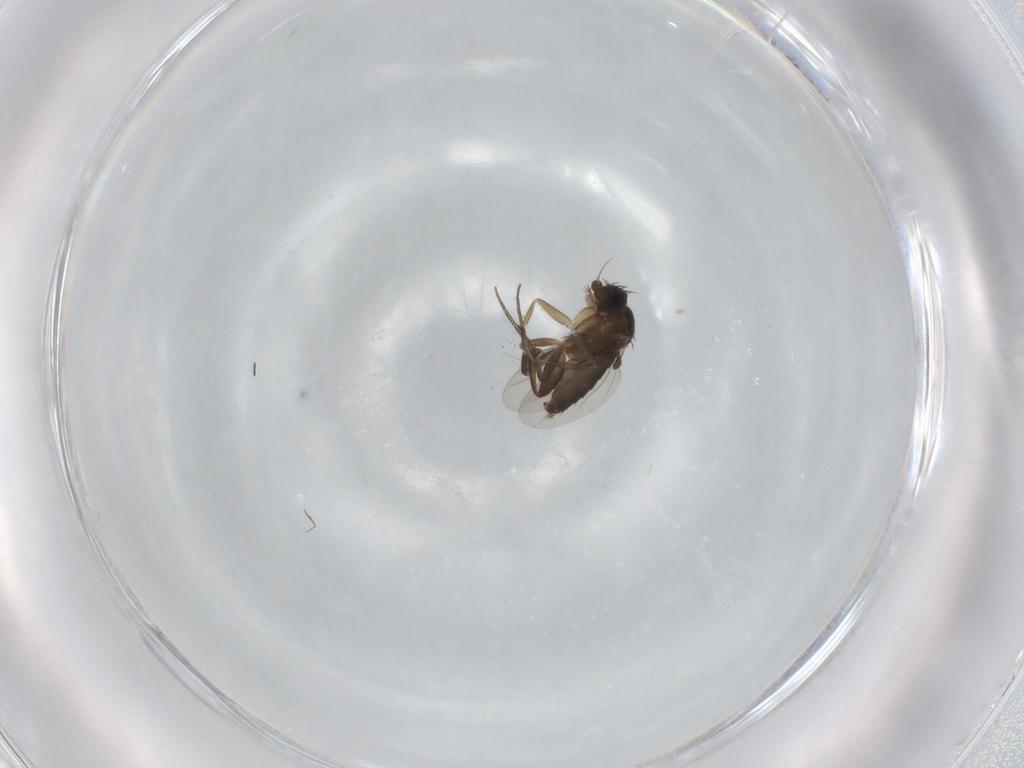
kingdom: Animalia
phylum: Arthropoda
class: Insecta
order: Diptera
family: Phoridae
